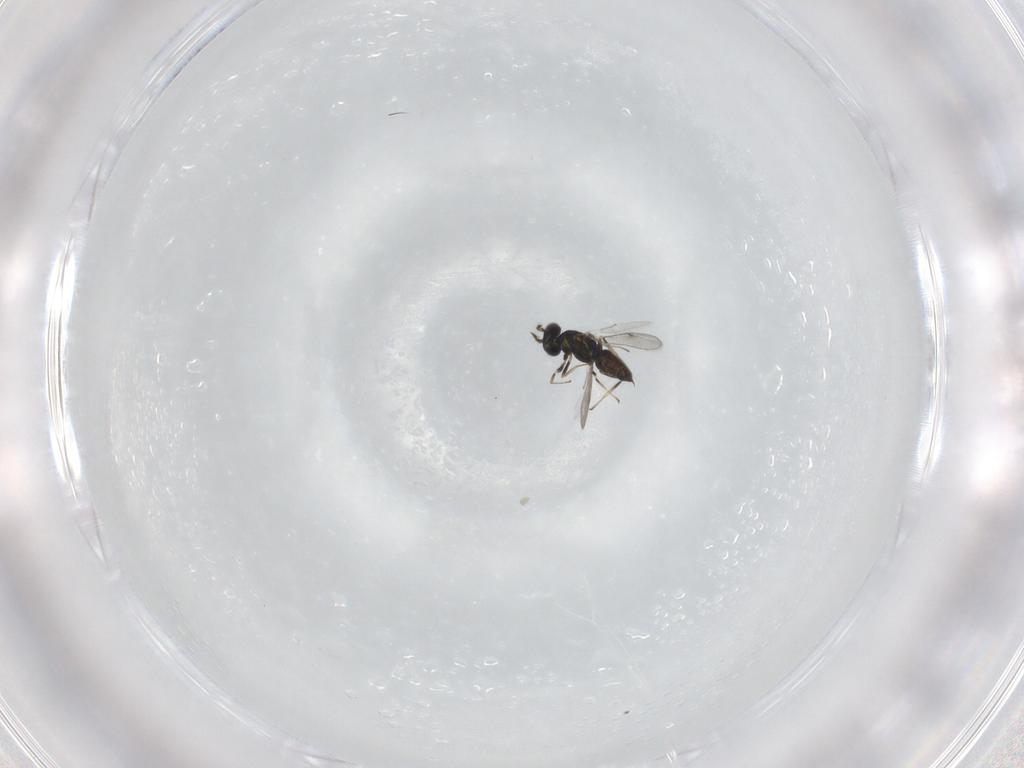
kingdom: Animalia
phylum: Arthropoda
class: Insecta
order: Hymenoptera
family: Eulophidae
